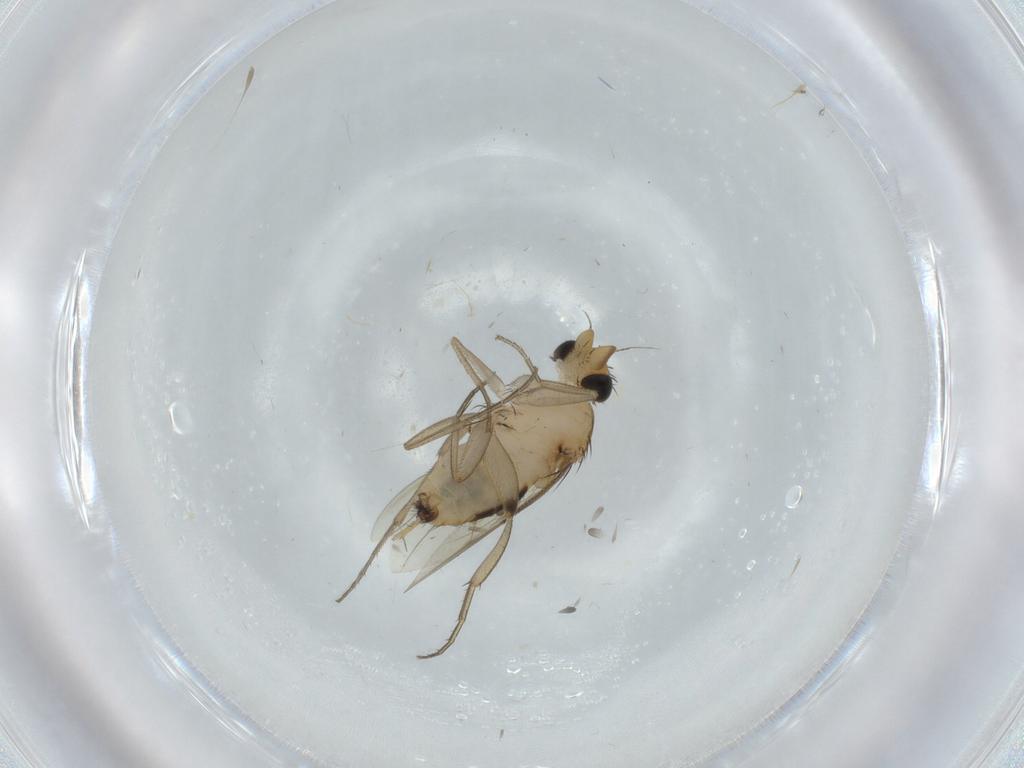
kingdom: Animalia
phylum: Arthropoda
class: Insecta
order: Diptera
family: Phoridae
